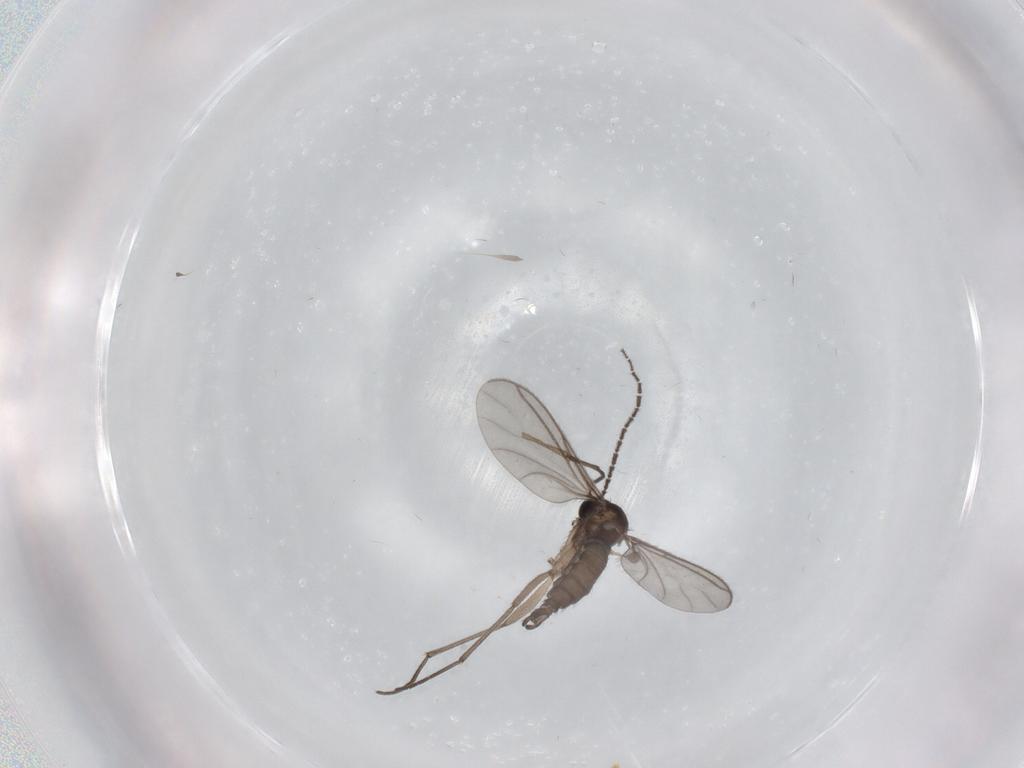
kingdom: Animalia
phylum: Arthropoda
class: Insecta
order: Diptera
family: Sciaridae
